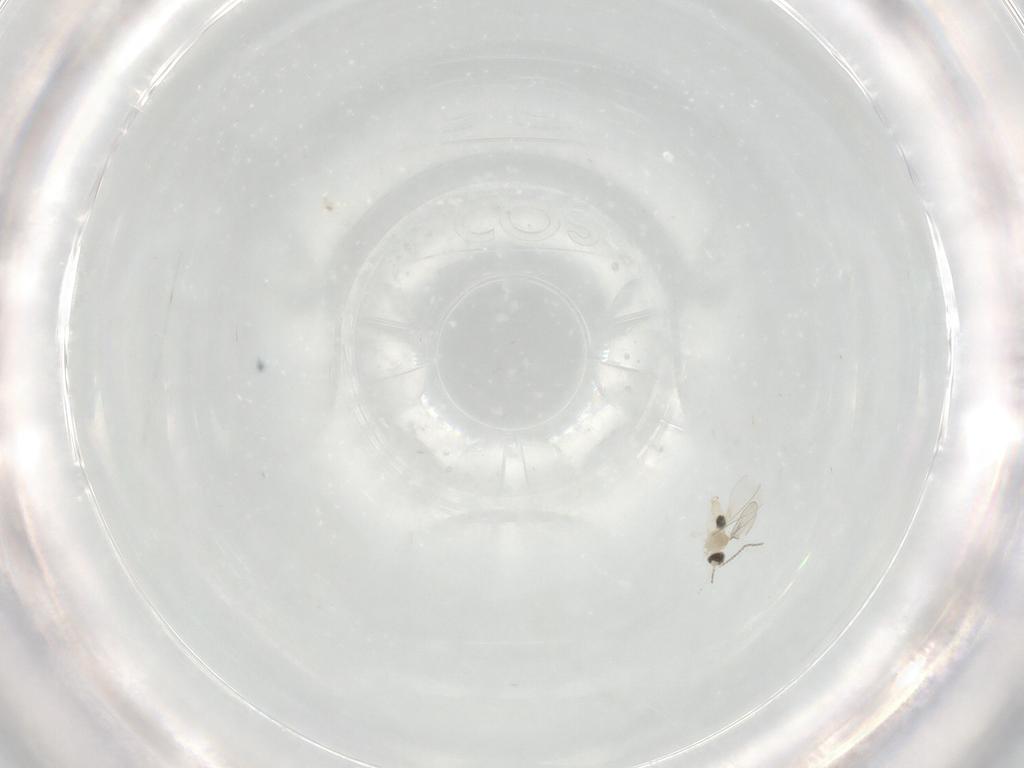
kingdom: Animalia
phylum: Arthropoda
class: Insecta
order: Diptera
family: Cecidomyiidae
